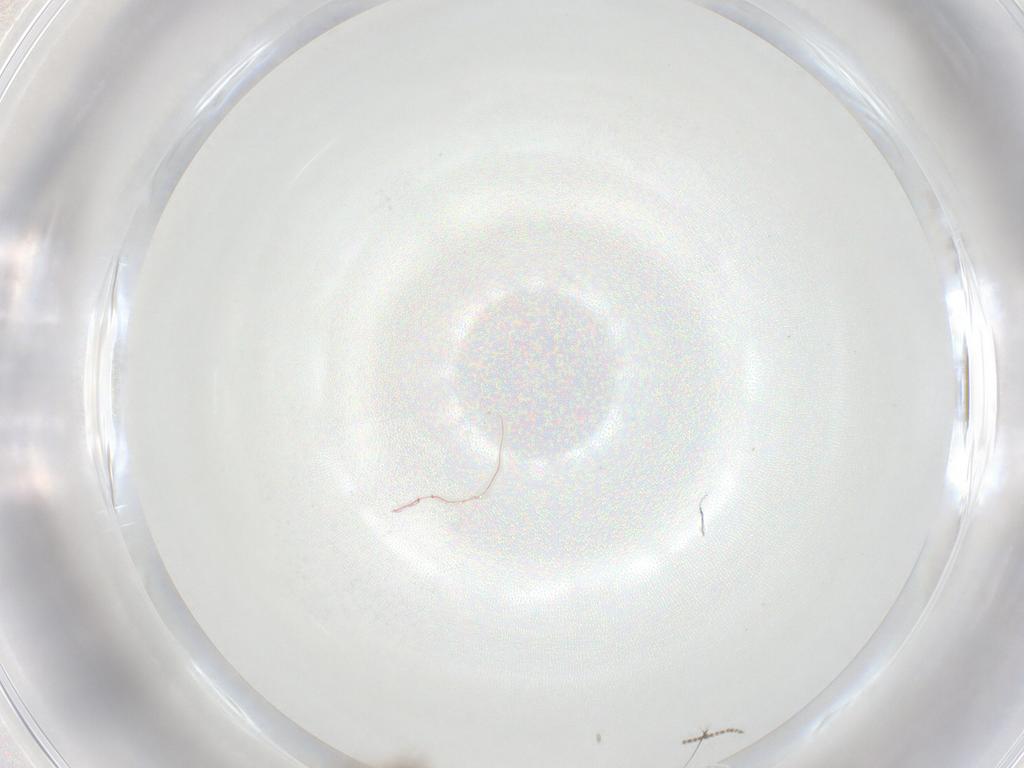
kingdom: Animalia
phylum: Arthropoda
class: Insecta
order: Diptera
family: Chironomidae
